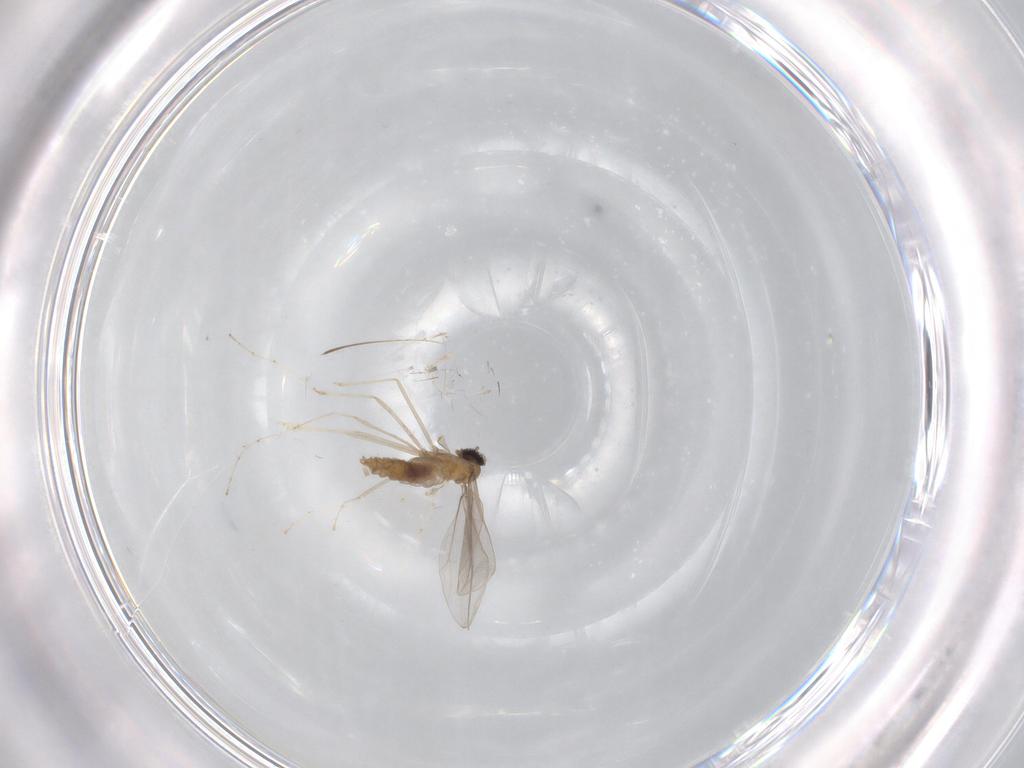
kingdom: Animalia
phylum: Arthropoda
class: Insecta
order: Diptera
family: Cecidomyiidae
